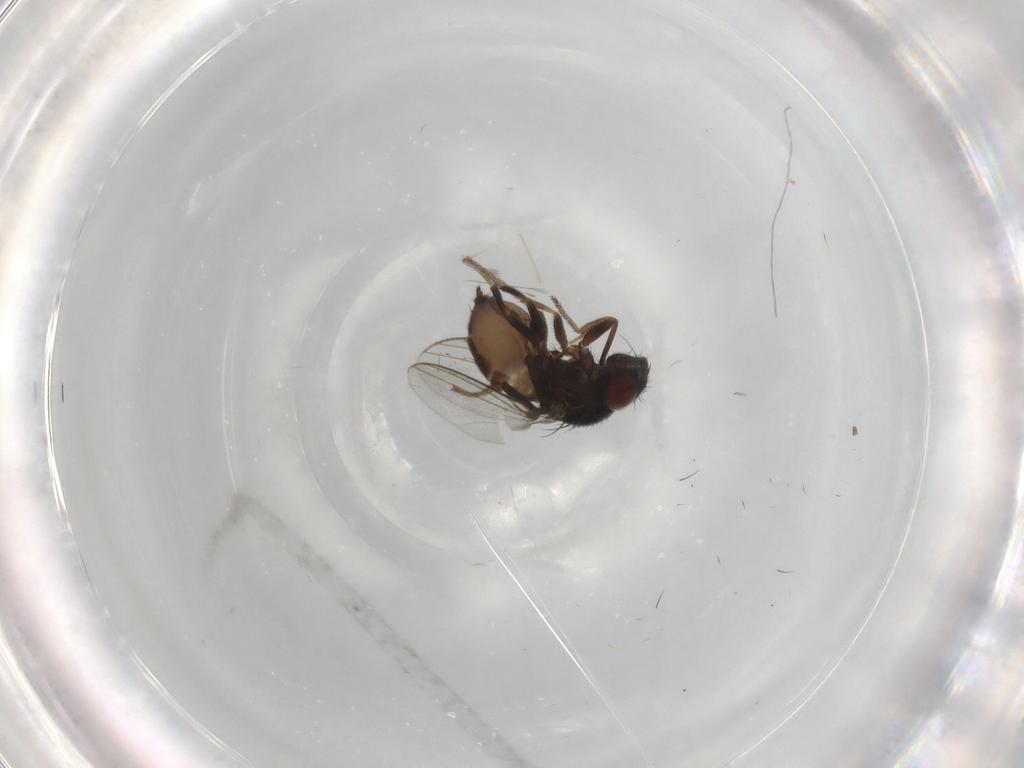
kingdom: Animalia
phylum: Arthropoda
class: Insecta
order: Diptera
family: Milichiidae
